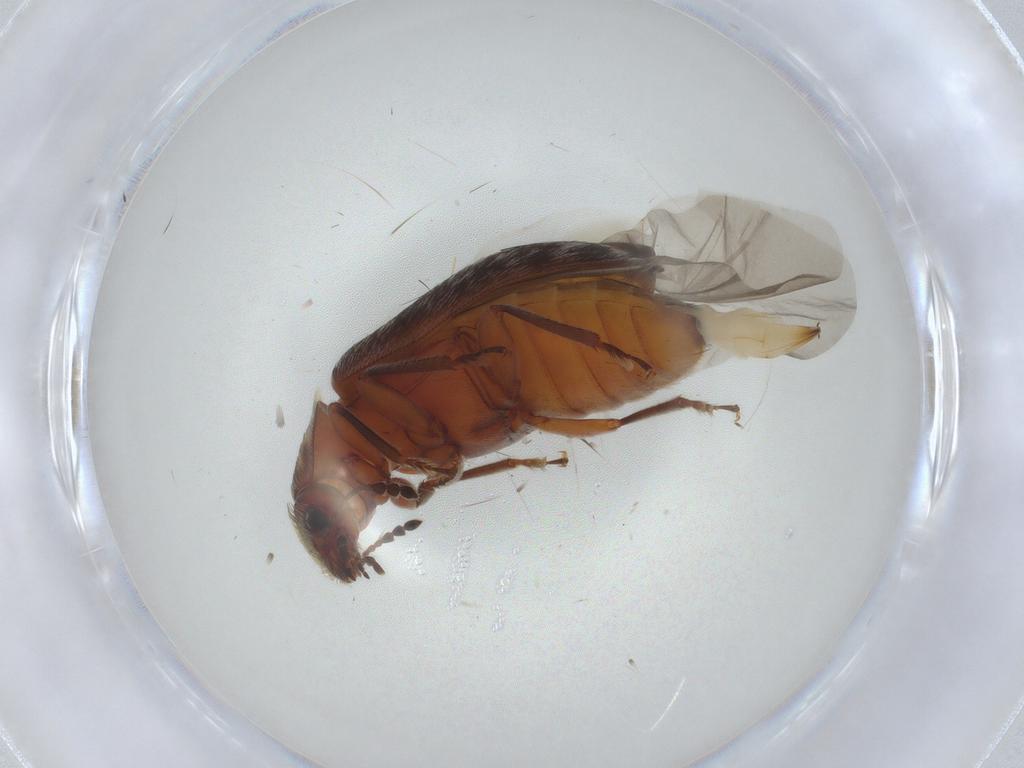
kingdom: Animalia
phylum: Arthropoda
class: Insecta
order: Coleoptera
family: Byturidae
